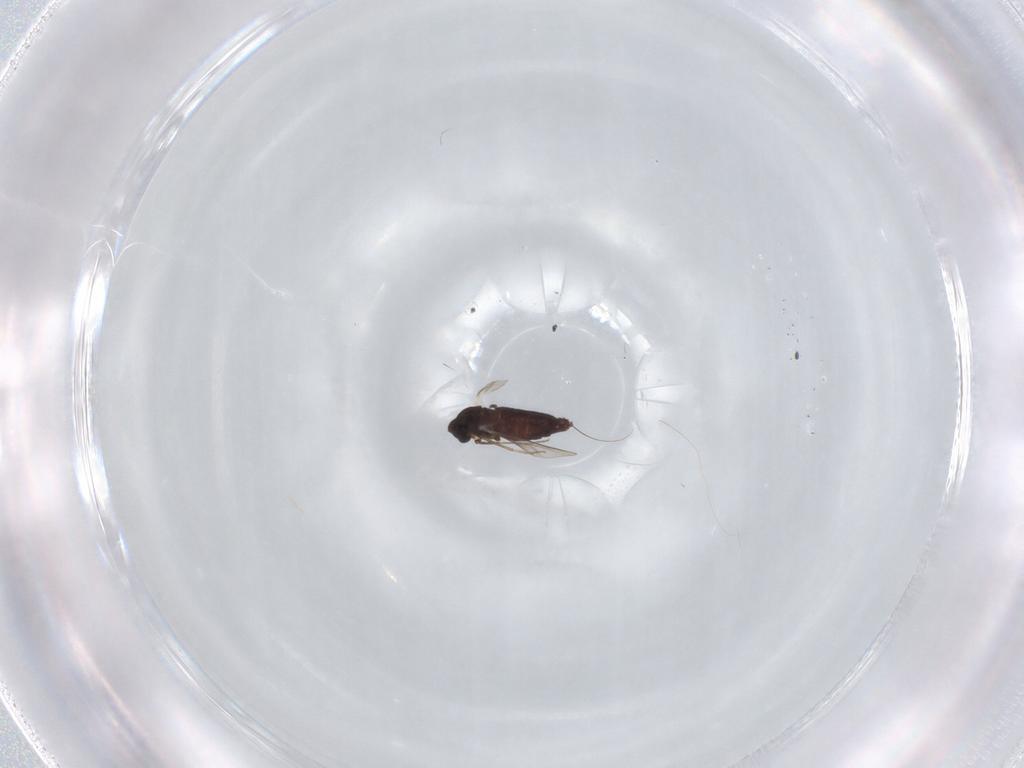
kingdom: Animalia
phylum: Arthropoda
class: Insecta
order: Diptera
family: Chironomidae
